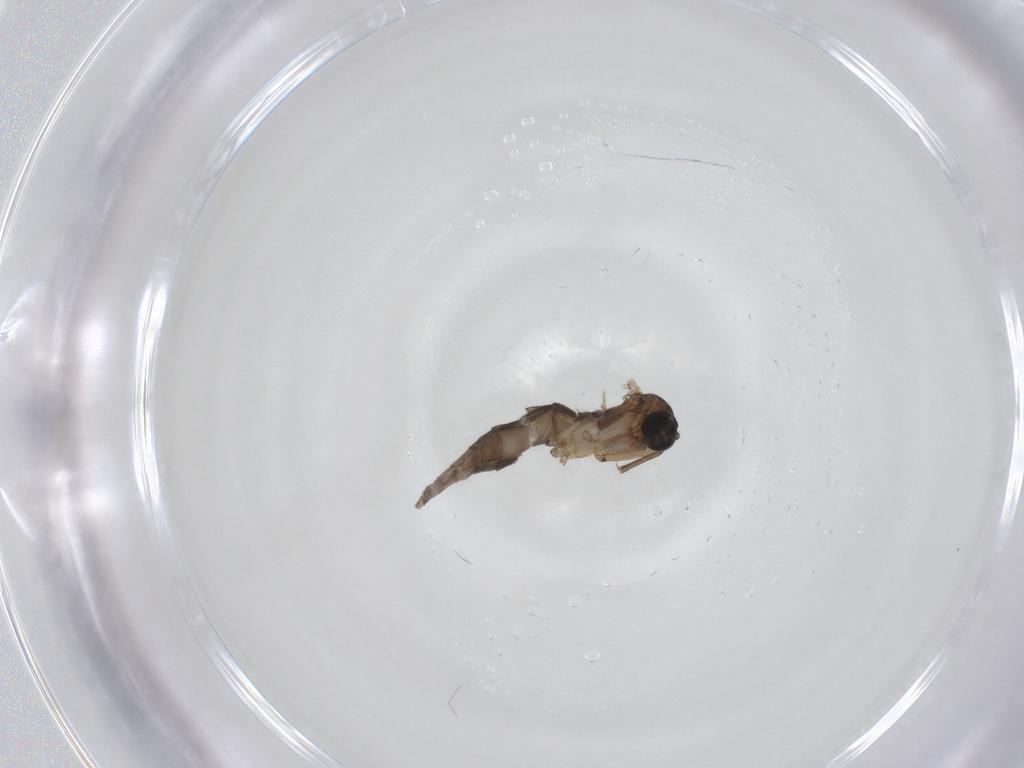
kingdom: Animalia
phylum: Arthropoda
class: Insecta
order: Diptera
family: Sciaridae
